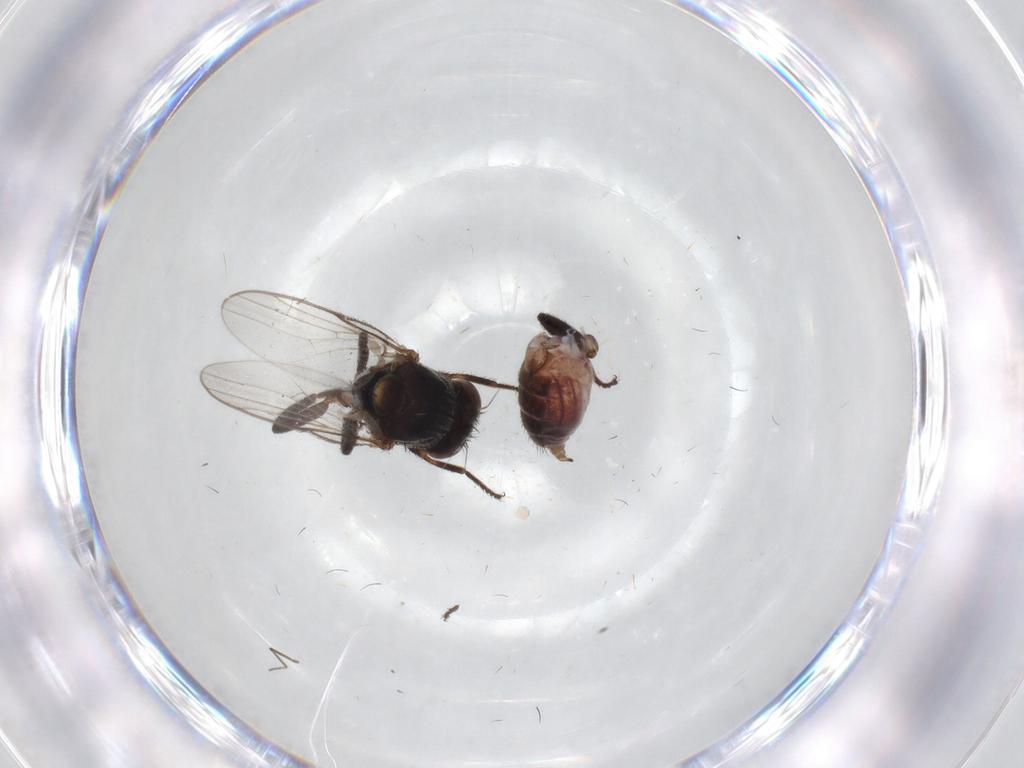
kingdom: Animalia
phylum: Arthropoda
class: Insecta
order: Diptera
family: Chloropidae
